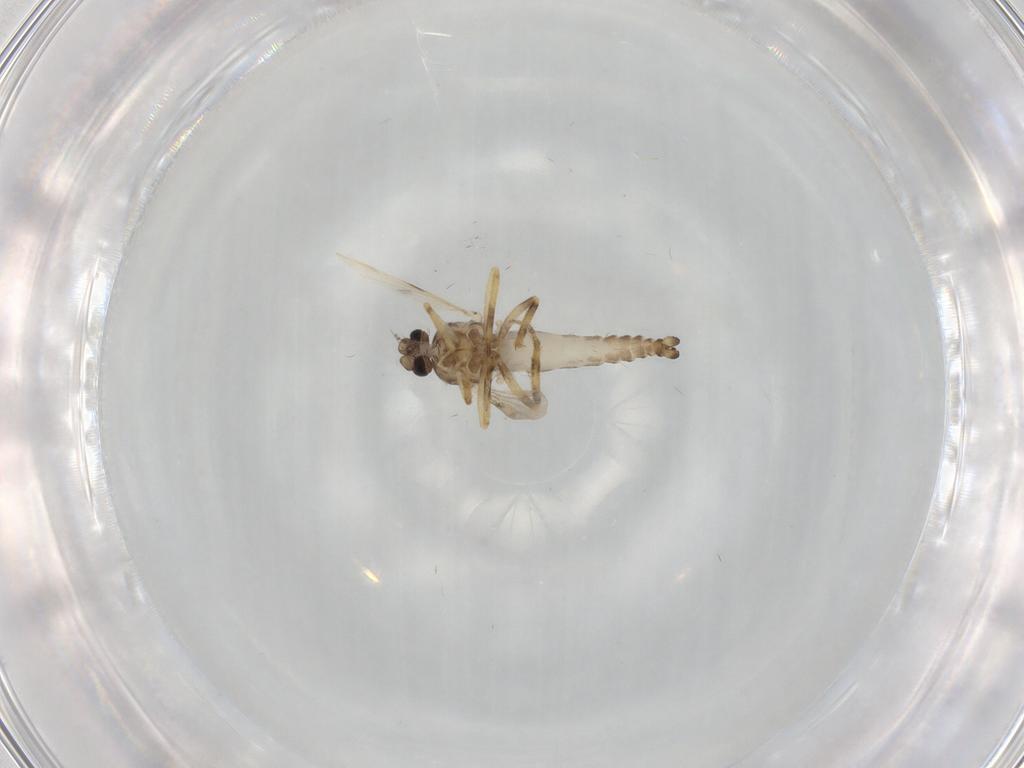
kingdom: Animalia
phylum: Arthropoda
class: Insecta
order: Diptera
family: Ceratopogonidae
